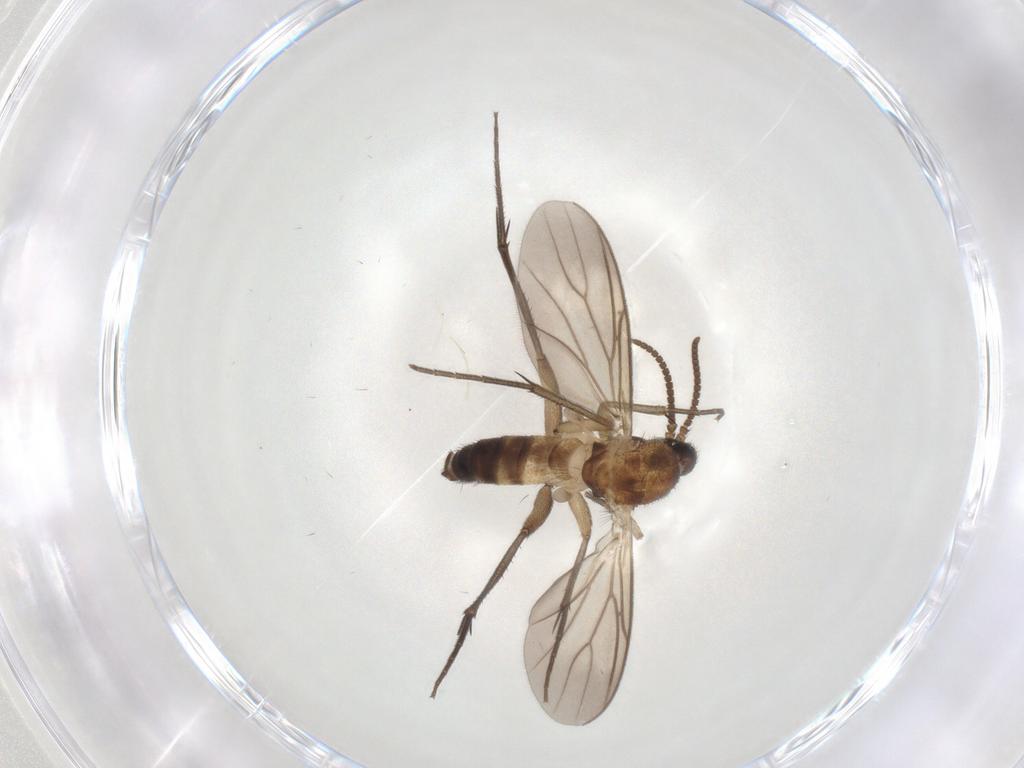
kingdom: Animalia
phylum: Arthropoda
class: Insecta
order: Diptera
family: Mycetophilidae
